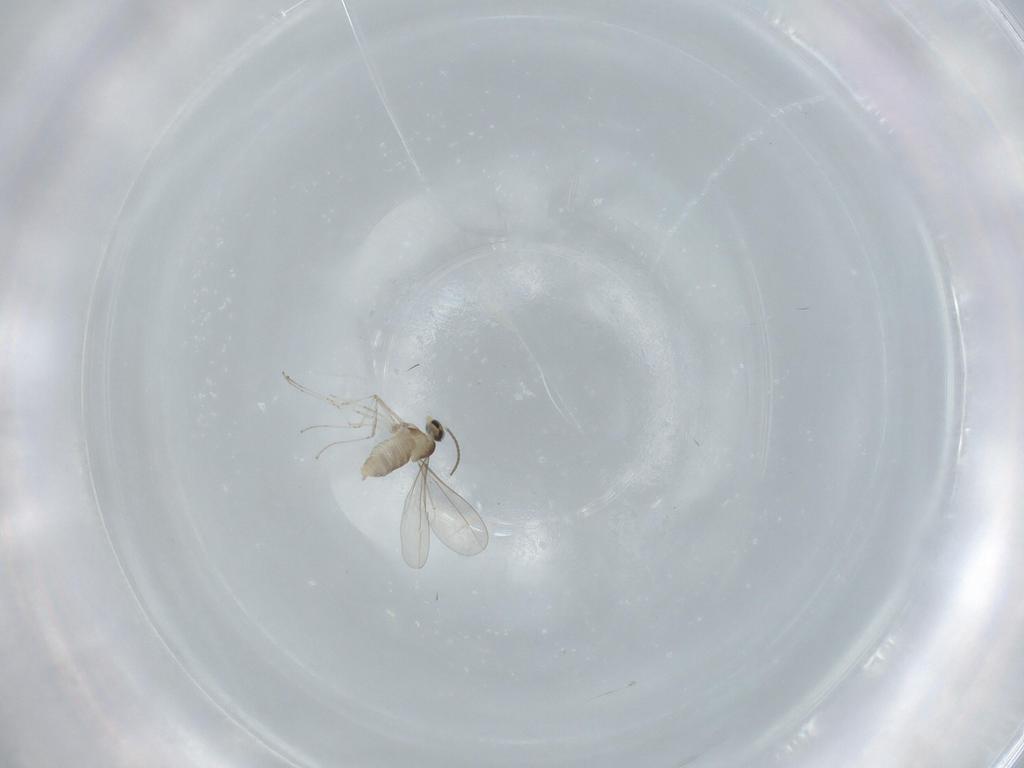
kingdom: Animalia
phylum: Arthropoda
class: Insecta
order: Diptera
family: Cecidomyiidae
